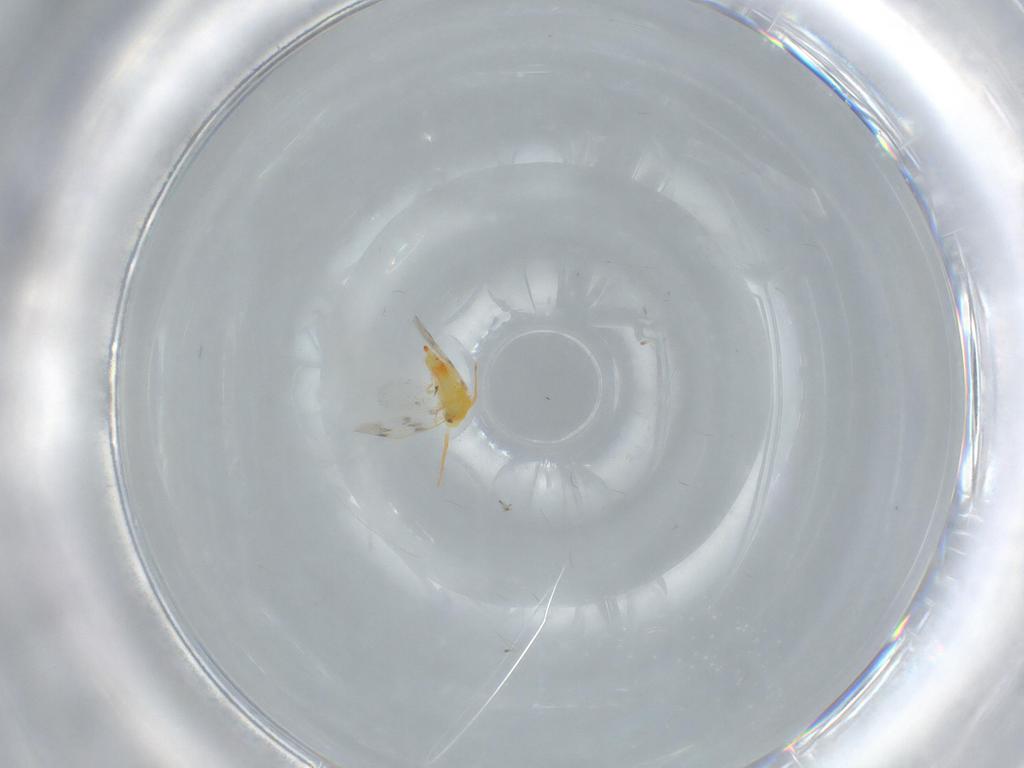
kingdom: Animalia
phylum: Arthropoda
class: Insecta
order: Hemiptera
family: Aleyrodidae
